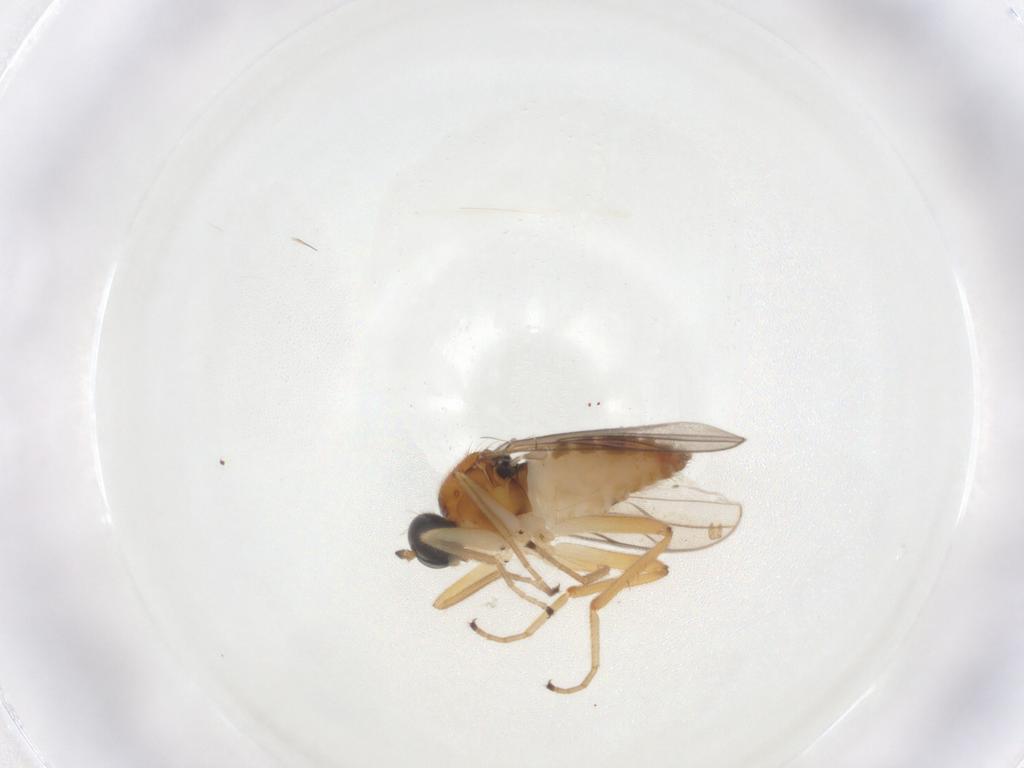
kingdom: Animalia
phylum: Arthropoda
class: Insecta
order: Diptera
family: Hybotidae
